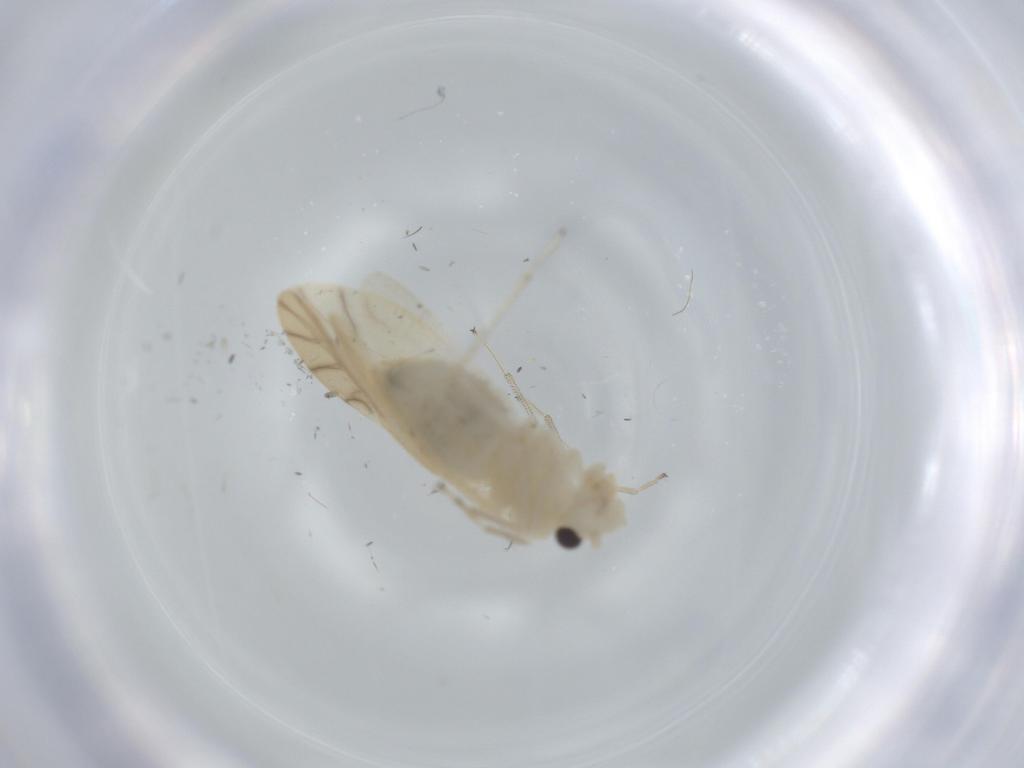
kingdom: Animalia
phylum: Arthropoda
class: Insecta
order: Psocodea
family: Caeciliusidae
